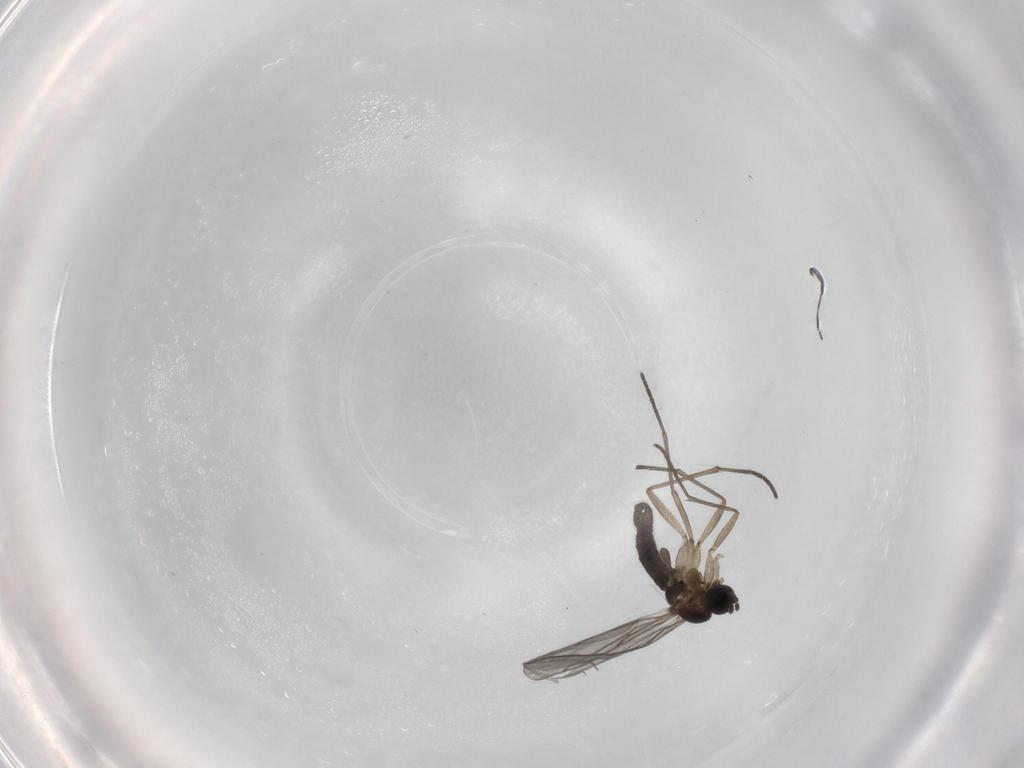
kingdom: Animalia
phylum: Arthropoda
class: Insecta
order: Diptera
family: Sciaridae
